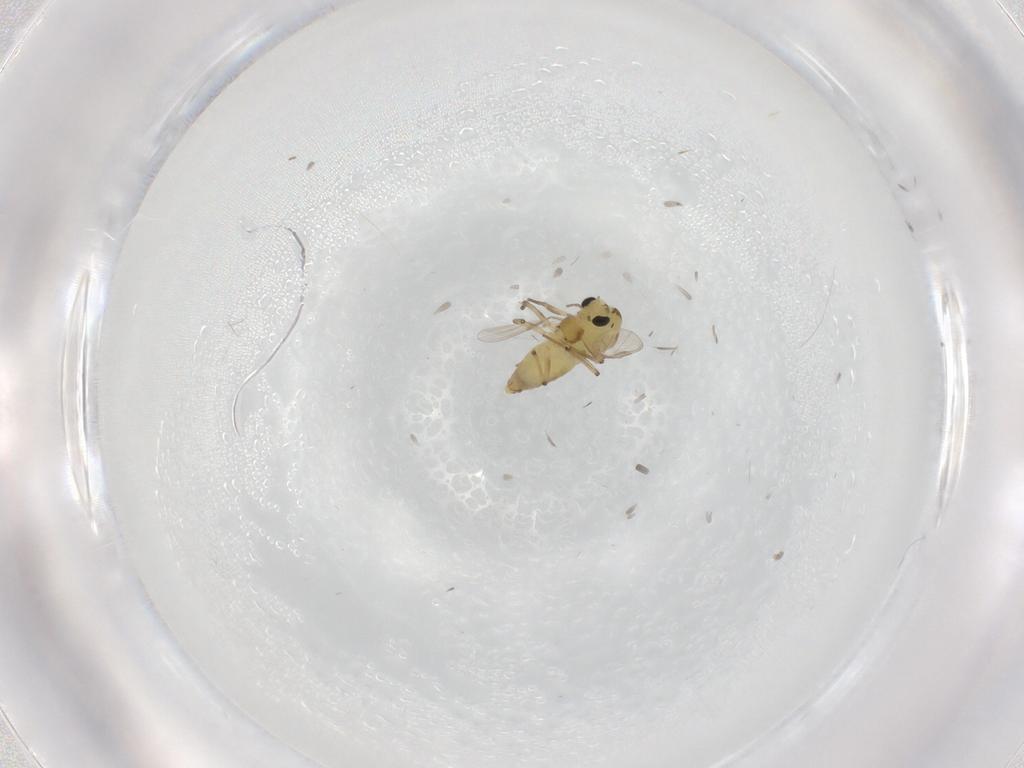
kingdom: Animalia
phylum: Arthropoda
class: Insecta
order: Diptera
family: Chironomidae
